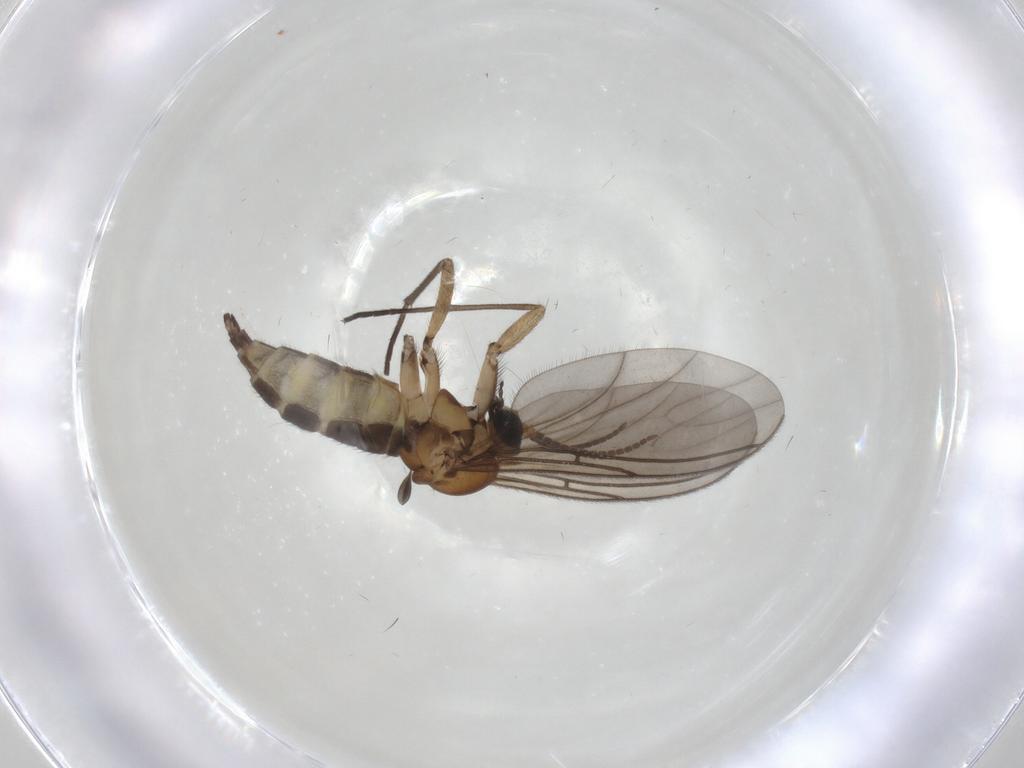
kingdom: Animalia
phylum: Arthropoda
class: Insecta
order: Diptera
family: Sciaridae
